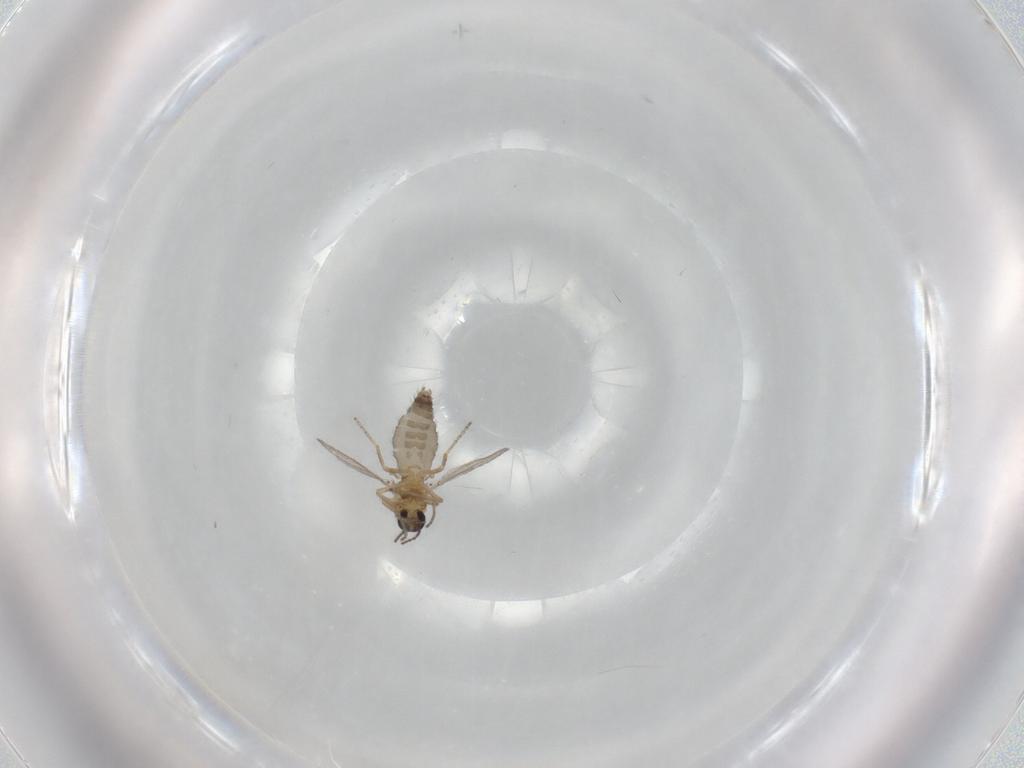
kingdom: Animalia
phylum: Arthropoda
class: Insecta
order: Diptera
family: Ceratopogonidae
